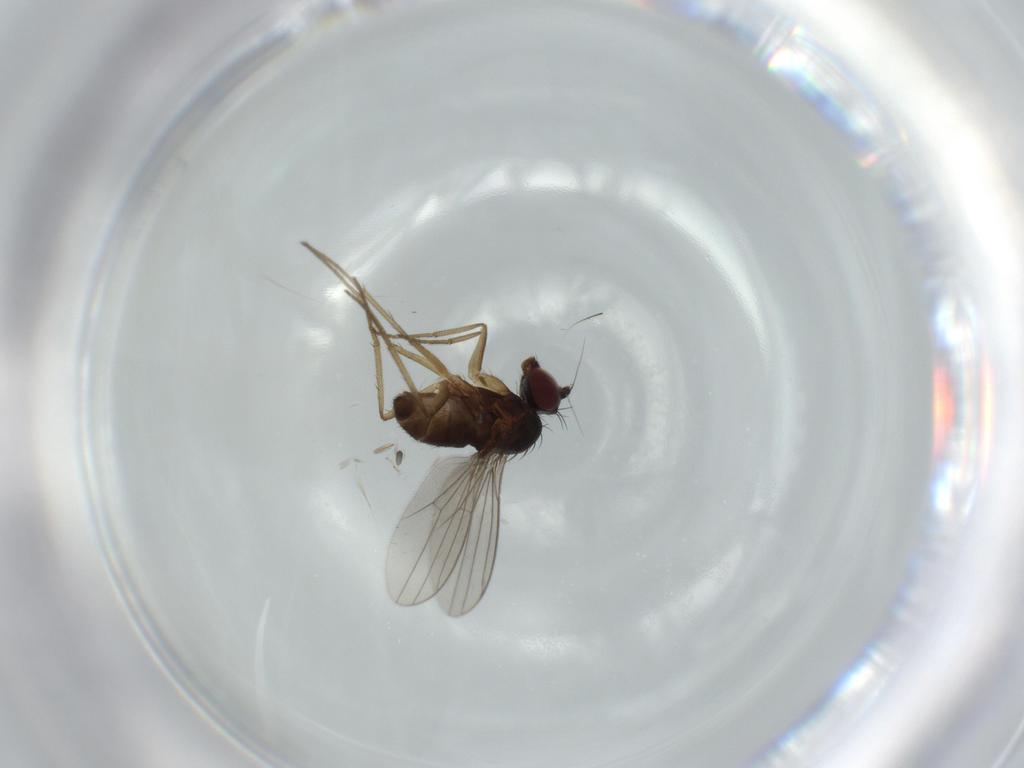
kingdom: Animalia
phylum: Arthropoda
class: Insecta
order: Diptera
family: Dolichopodidae
